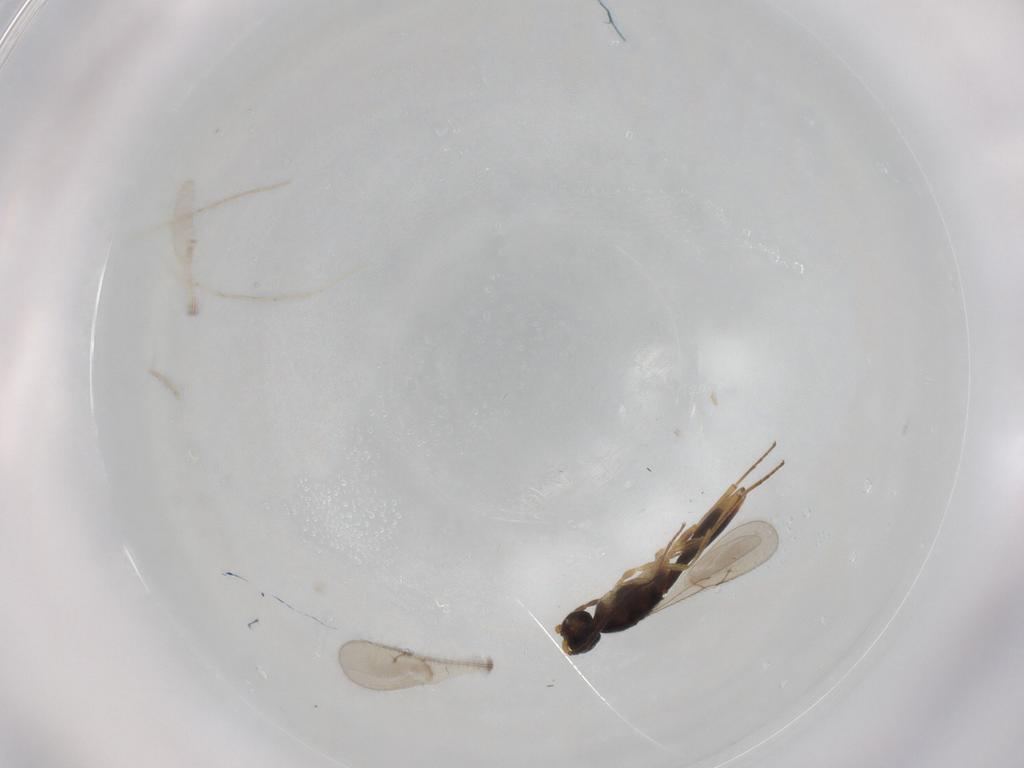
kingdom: Animalia
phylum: Arthropoda
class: Insecta
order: Hymenoptera
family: Scelionidae
